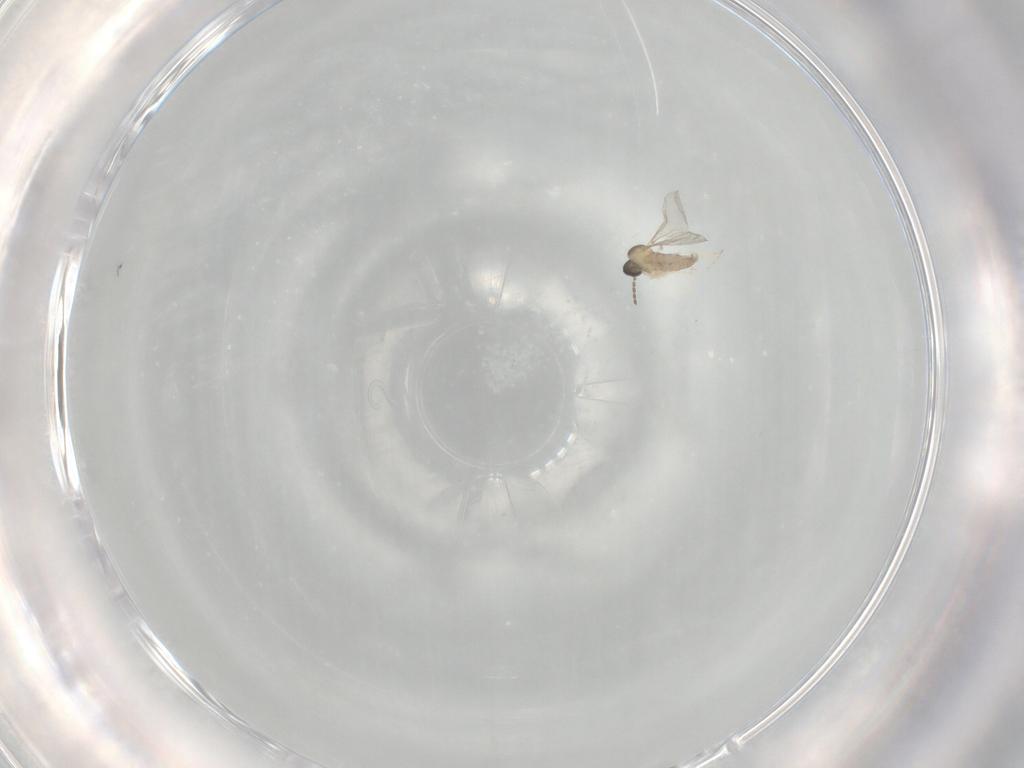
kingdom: Animalia
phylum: Arthropoda
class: Insecta
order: Diptera
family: Cecidomyiidae
